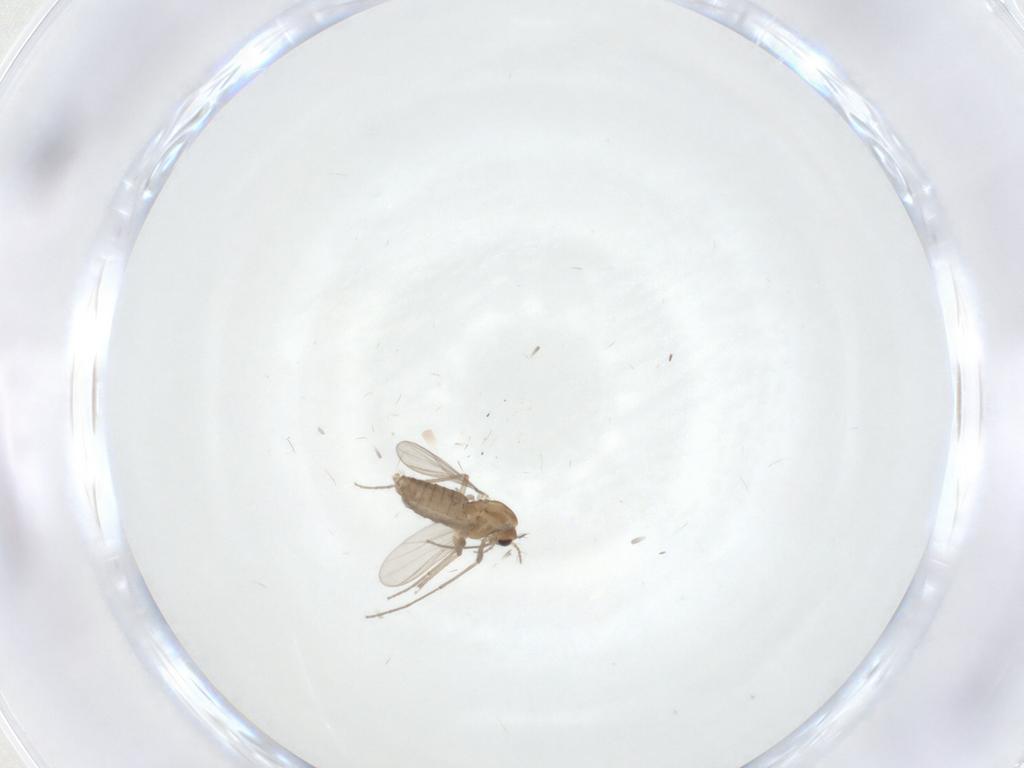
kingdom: Animalia
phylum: Arthropoda
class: Insecta
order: Diptera
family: Chironomidae
